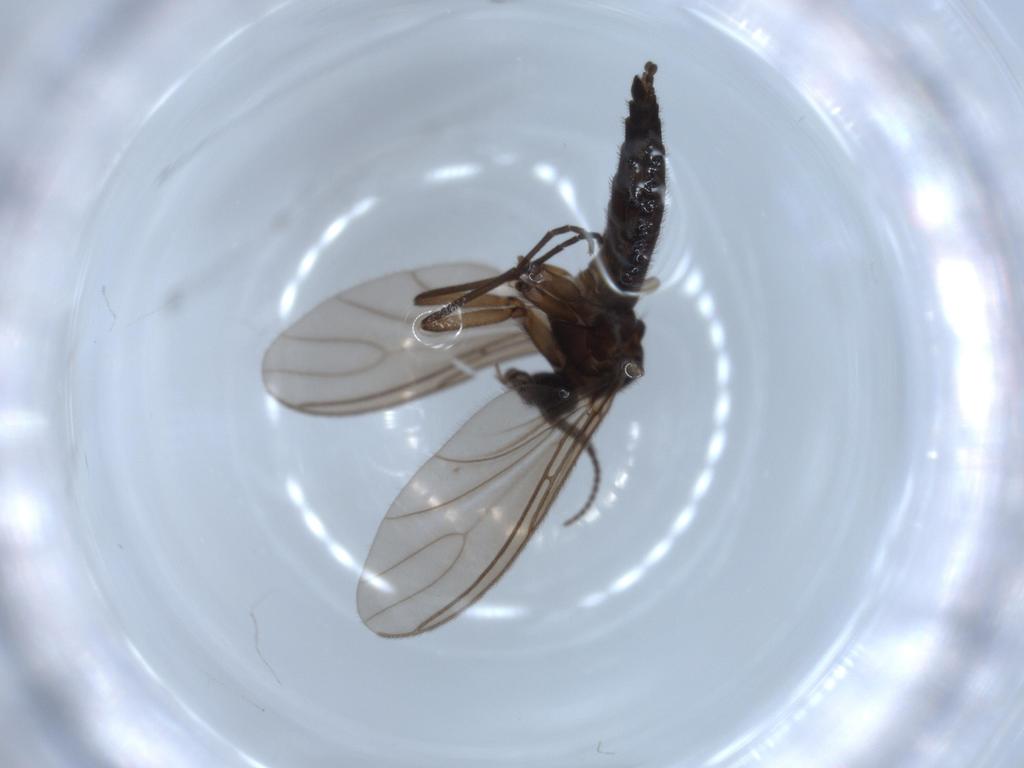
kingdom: Animalia
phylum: Arthropoda
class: Insecta
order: Diptera
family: Sciaridae
